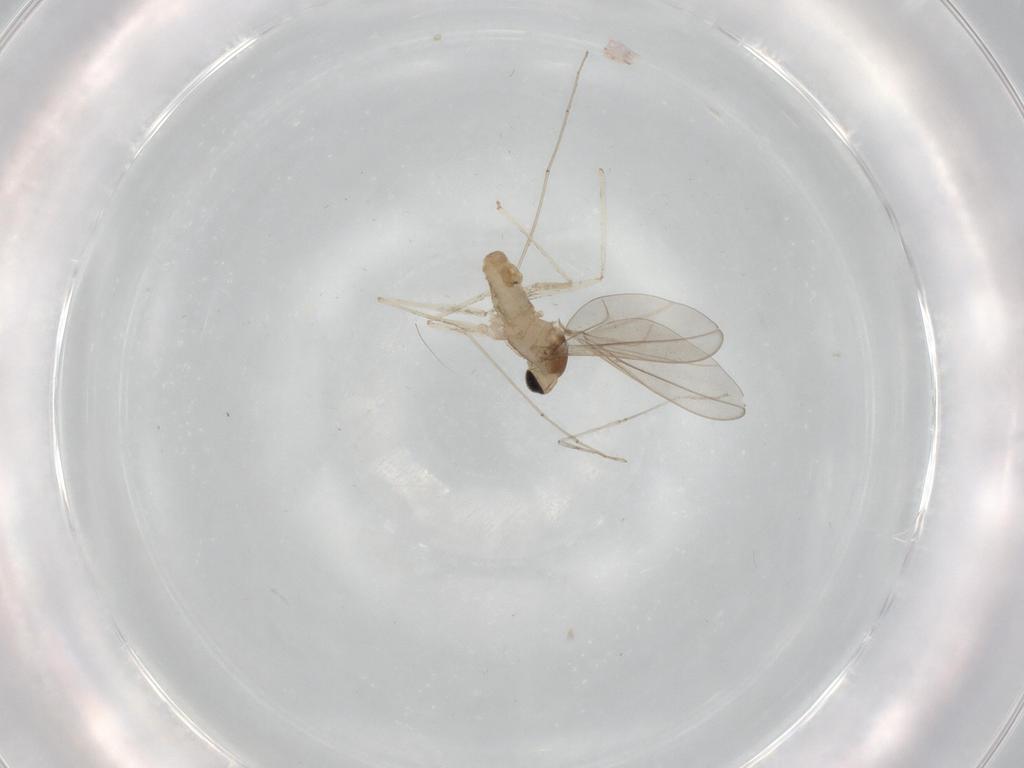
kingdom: Animalia
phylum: Arthropoda
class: Insecta
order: Diptera
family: Cecidomyiidae
